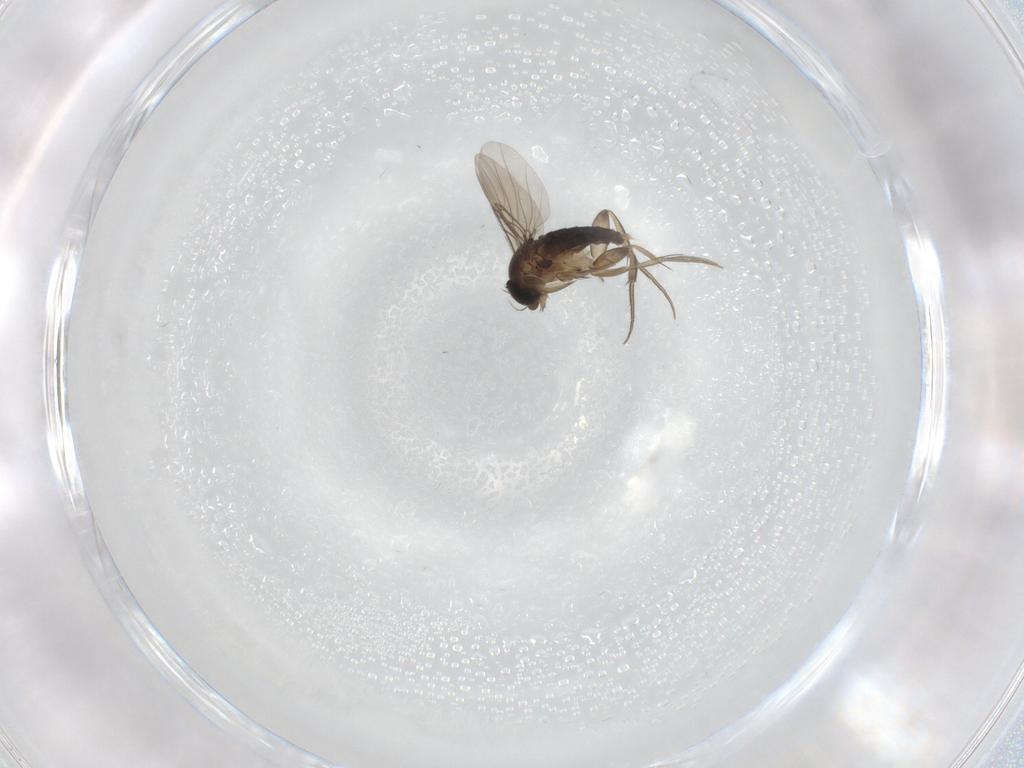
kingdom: Animalia
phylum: Arthropoda
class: Insecta
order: Diptera
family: Phoridae
